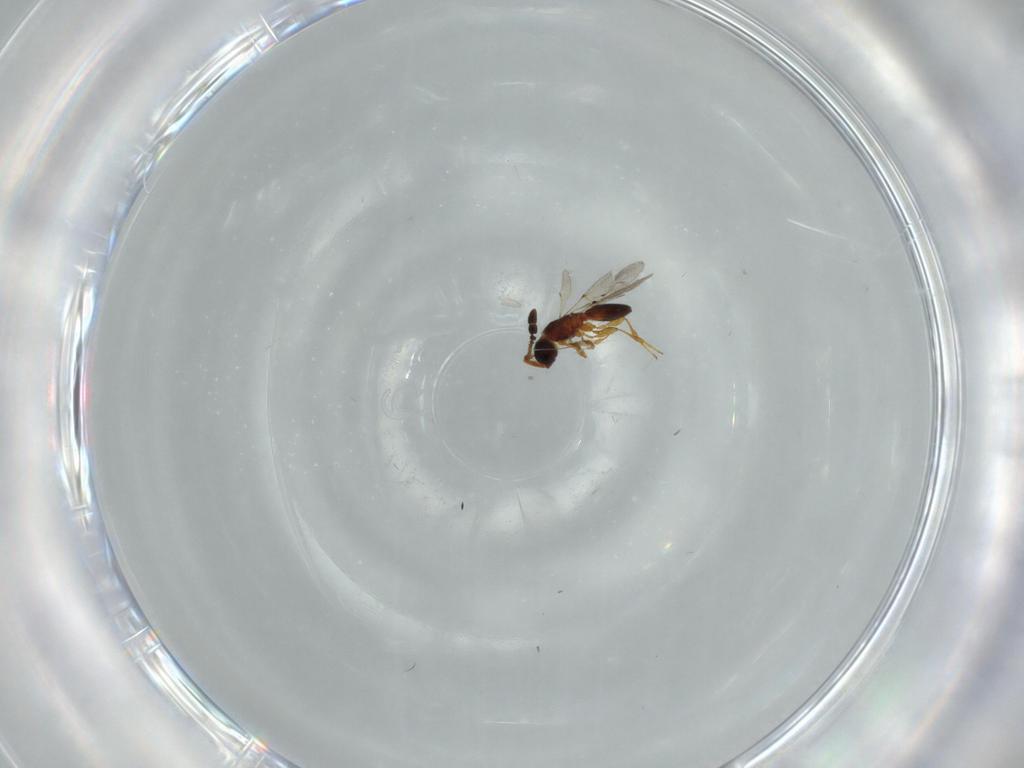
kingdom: Animalia
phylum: Arthropoda
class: Insecta
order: Hymenoptera
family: Diapriidae
